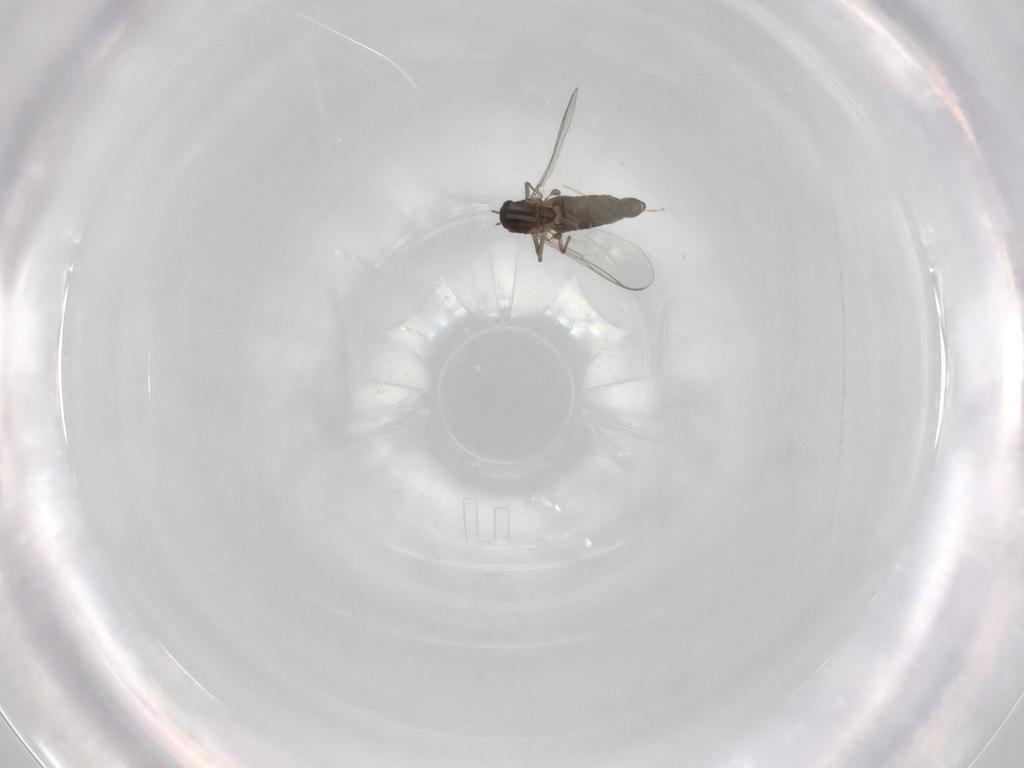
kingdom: Animalia
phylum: Arthropoda
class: Insecta
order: Diptera
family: Chironomidae
